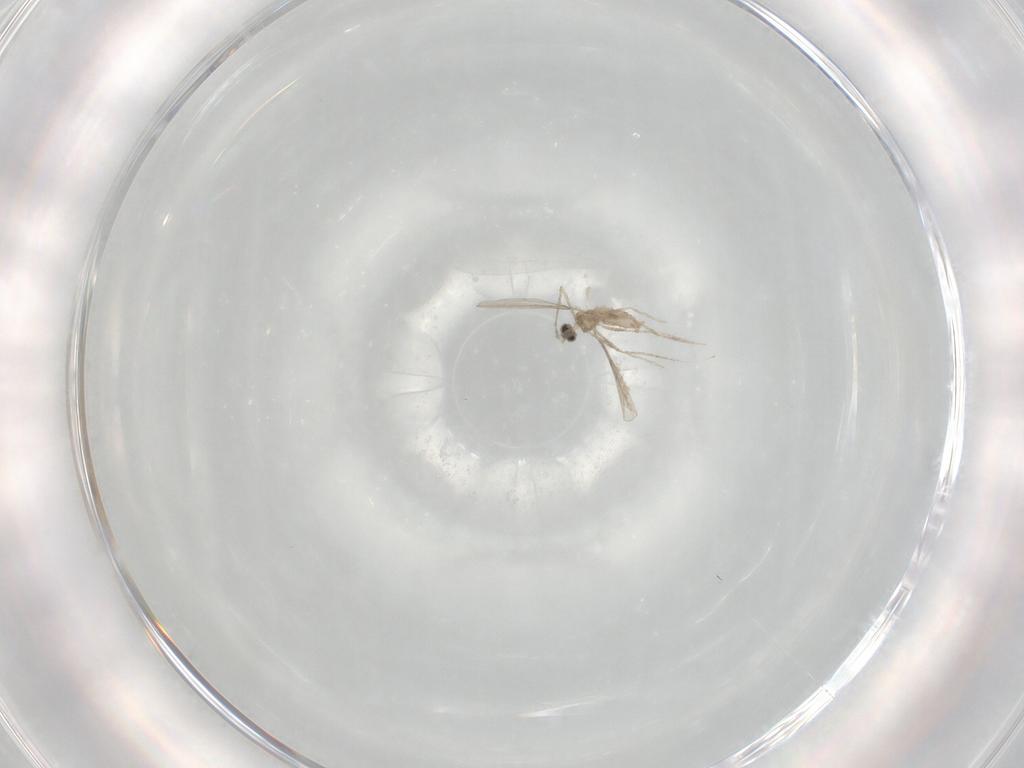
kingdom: Animalia
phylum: Arthropoda
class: Insecta
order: Diptera
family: Chironomidae
